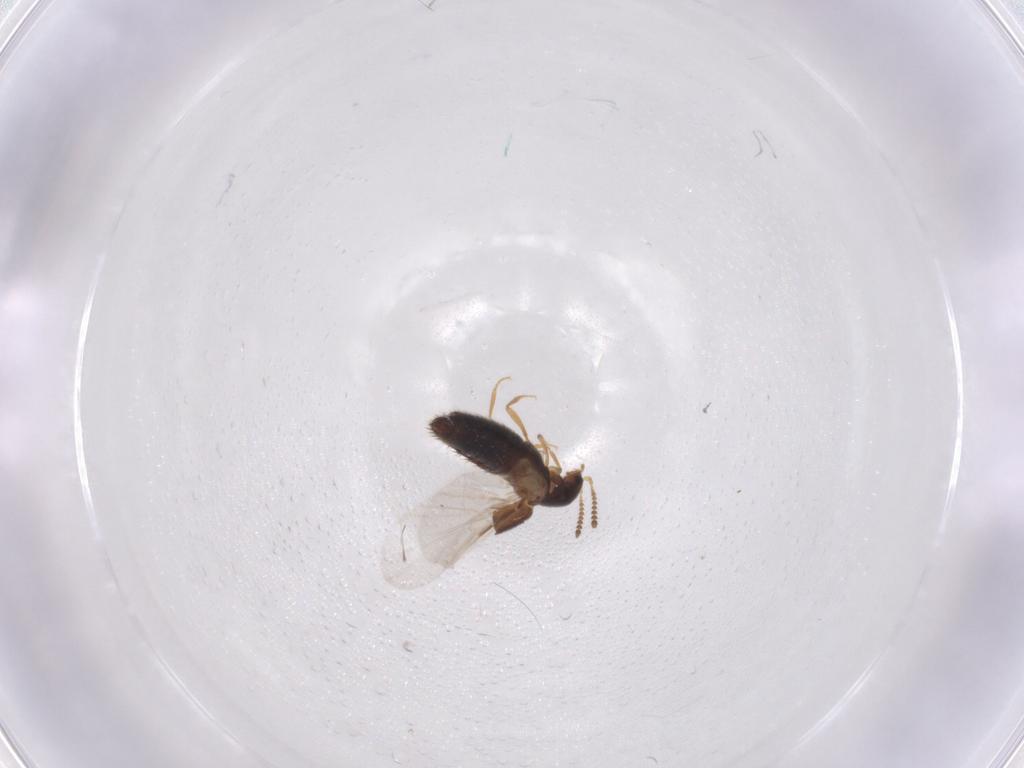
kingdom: Animalia
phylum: Arthropoda
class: Insecta
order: Coleoptera
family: Staphylinidae
